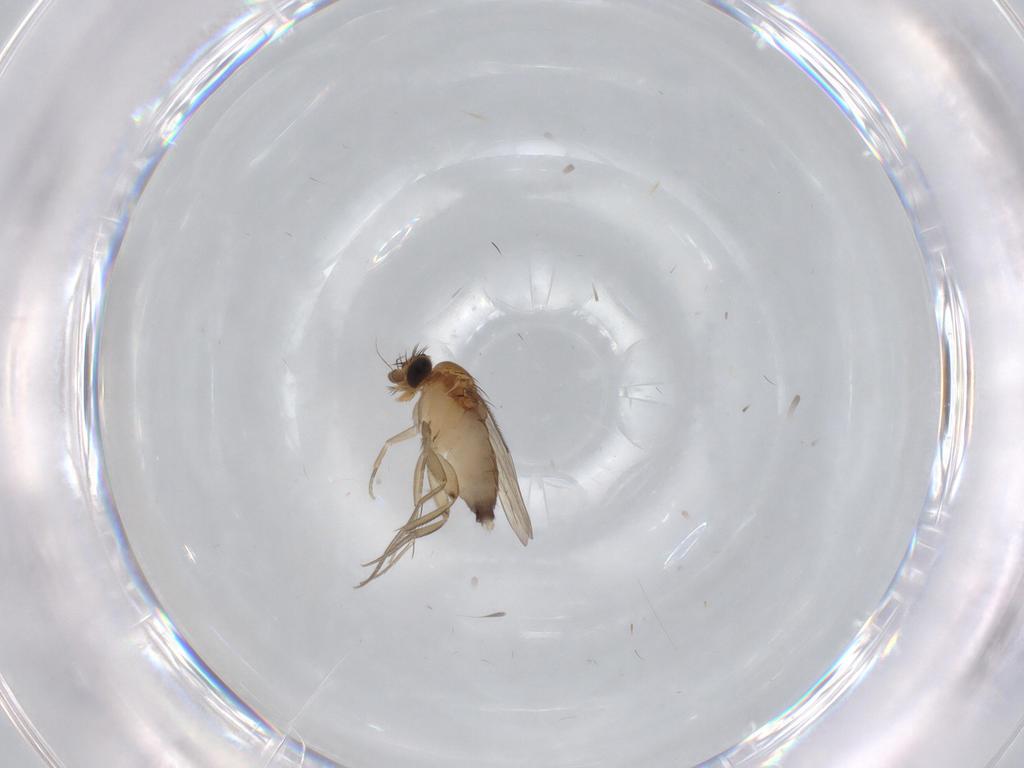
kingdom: Animalia
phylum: Arthropoda
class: Insecta
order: Diptera
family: Phoridae
